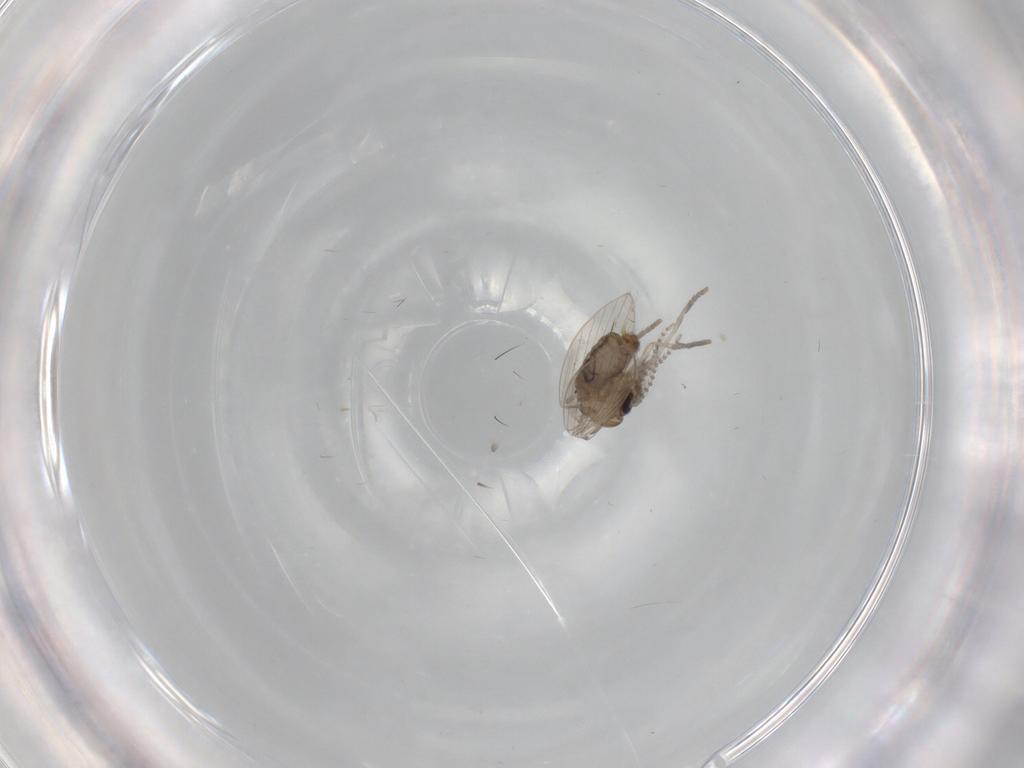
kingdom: Animalia
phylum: Arthropoda
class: Insecta
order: Diptera
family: Psychodidae
